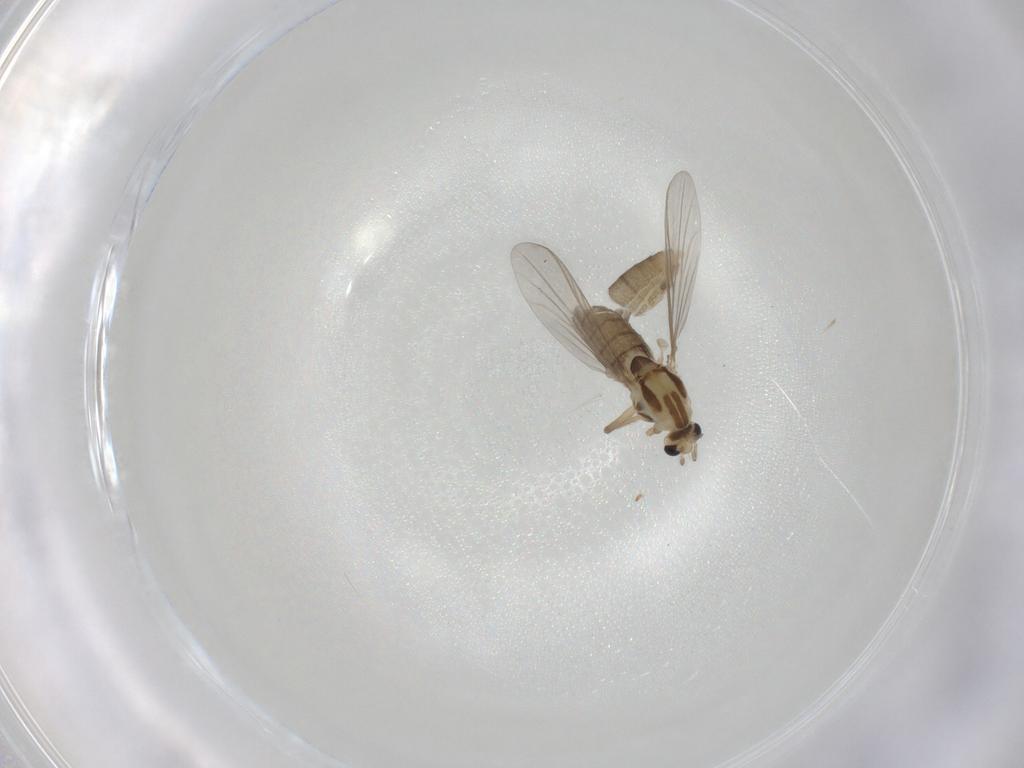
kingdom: Animalia
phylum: Arthropoda
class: Insecta
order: Diptera
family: Chironomidae
